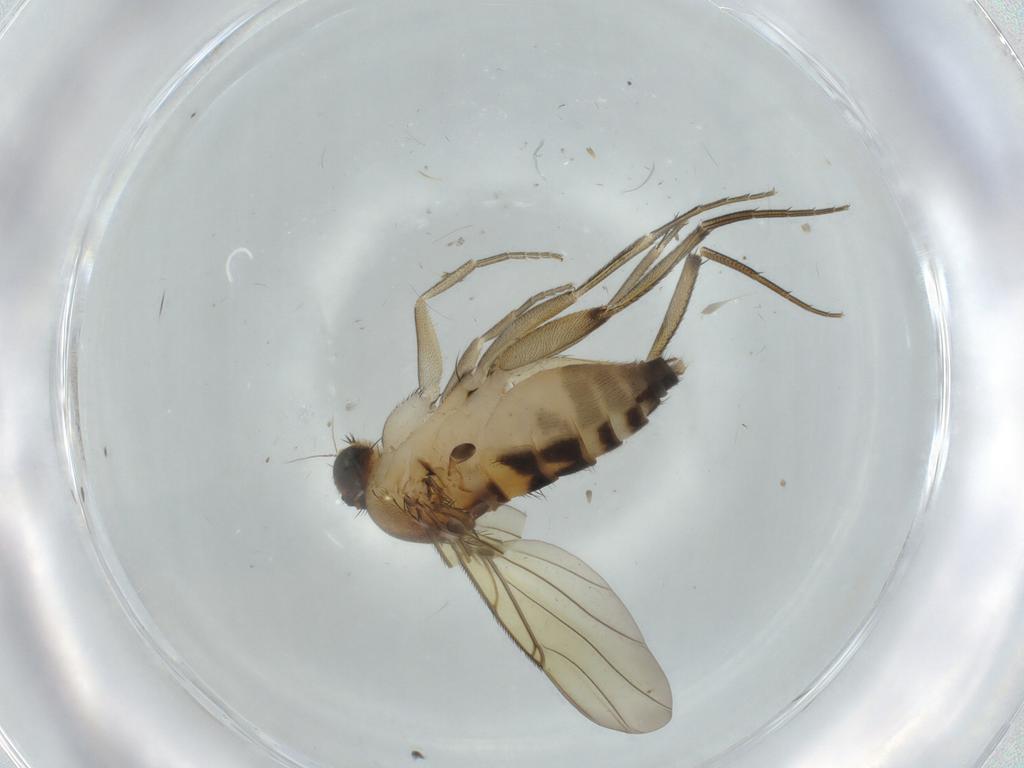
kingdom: Animalia
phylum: Arthropoda
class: Insecta
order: Diptera
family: Phoridae
